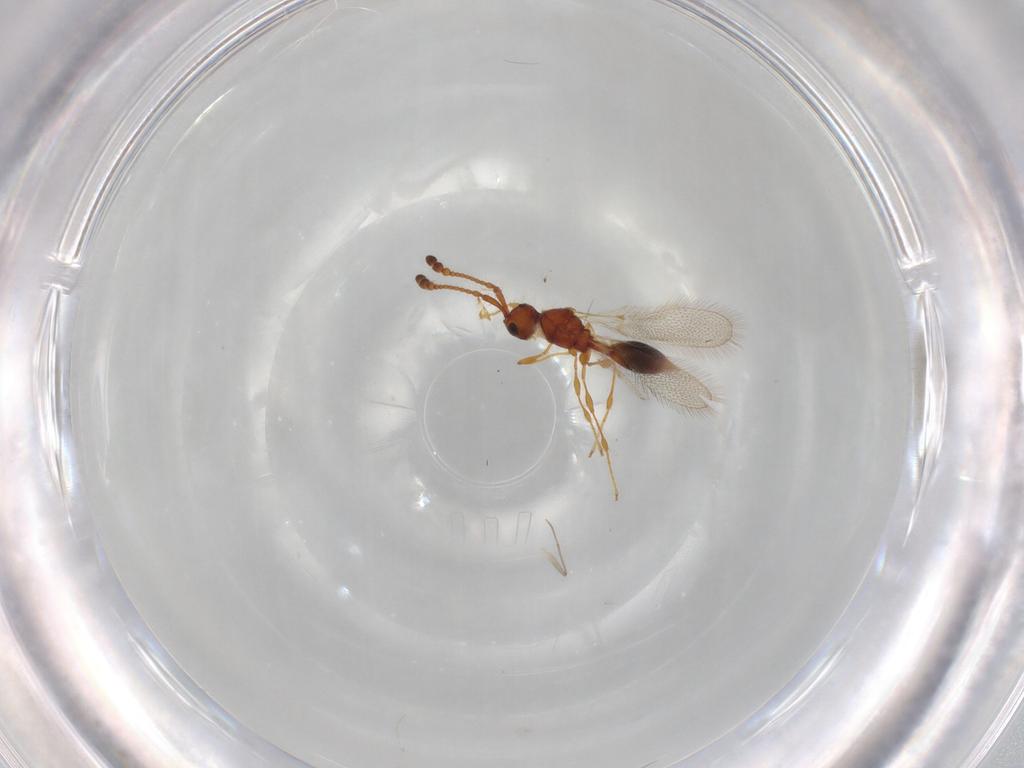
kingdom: Animalia
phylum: Arthropoda
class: Insecta
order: Hymenoptera
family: Diapriidae
